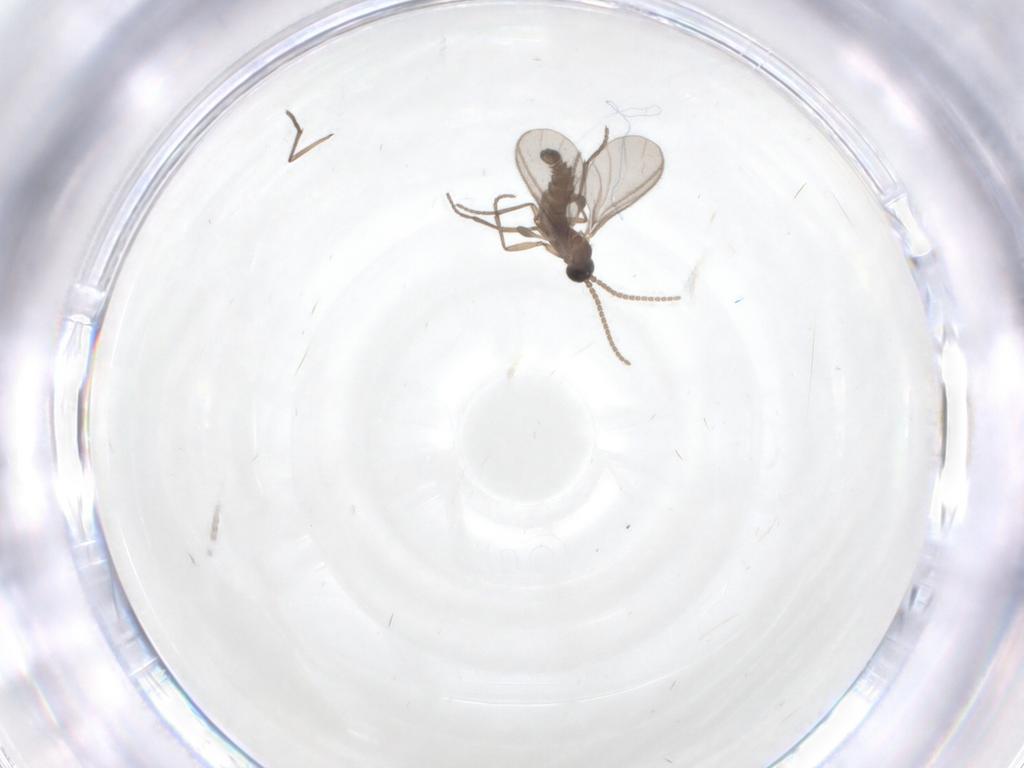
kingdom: Animalia
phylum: Arthropoda
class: Insecta
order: Diptera
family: Sciaridae
